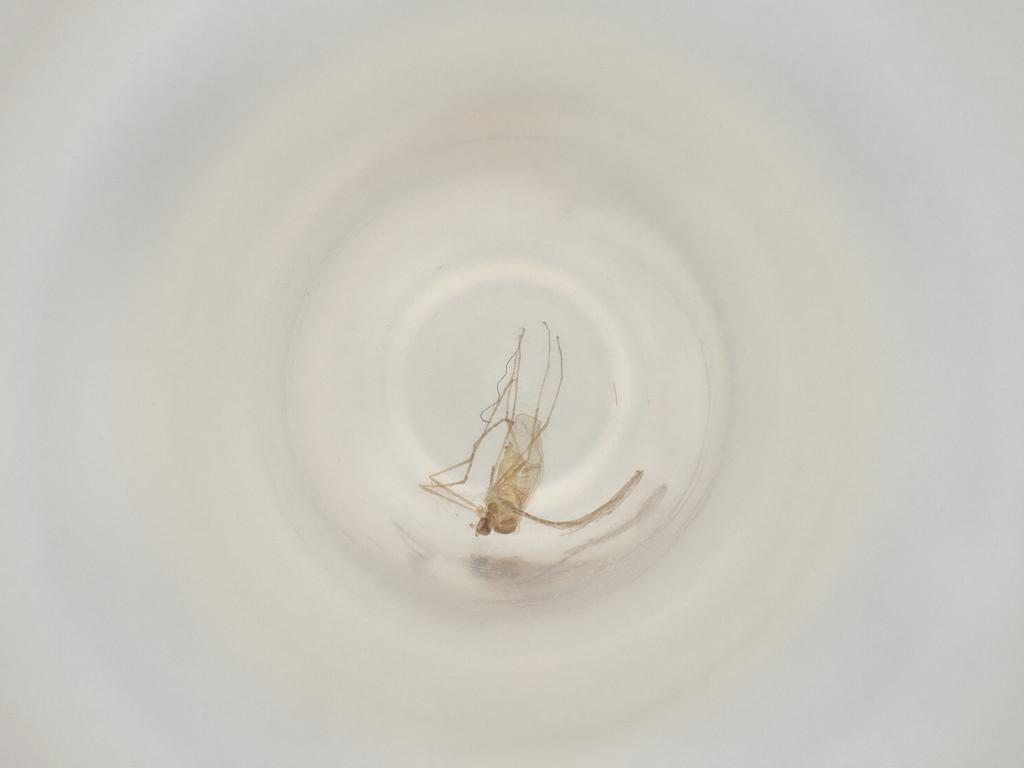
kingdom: Animalia
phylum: Arthropoda
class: Insecta
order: Diptera
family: Cecidomyiidae
